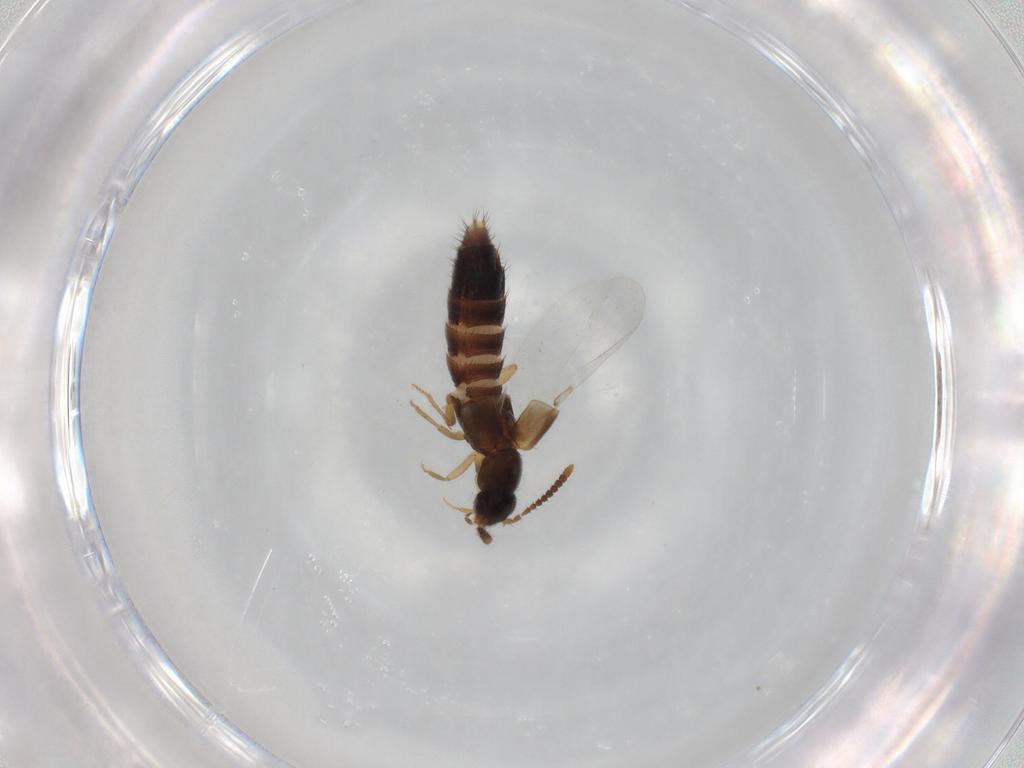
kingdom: Animalia
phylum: Arthropoda
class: Insecta
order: Coleoptera
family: Staphylinidae
